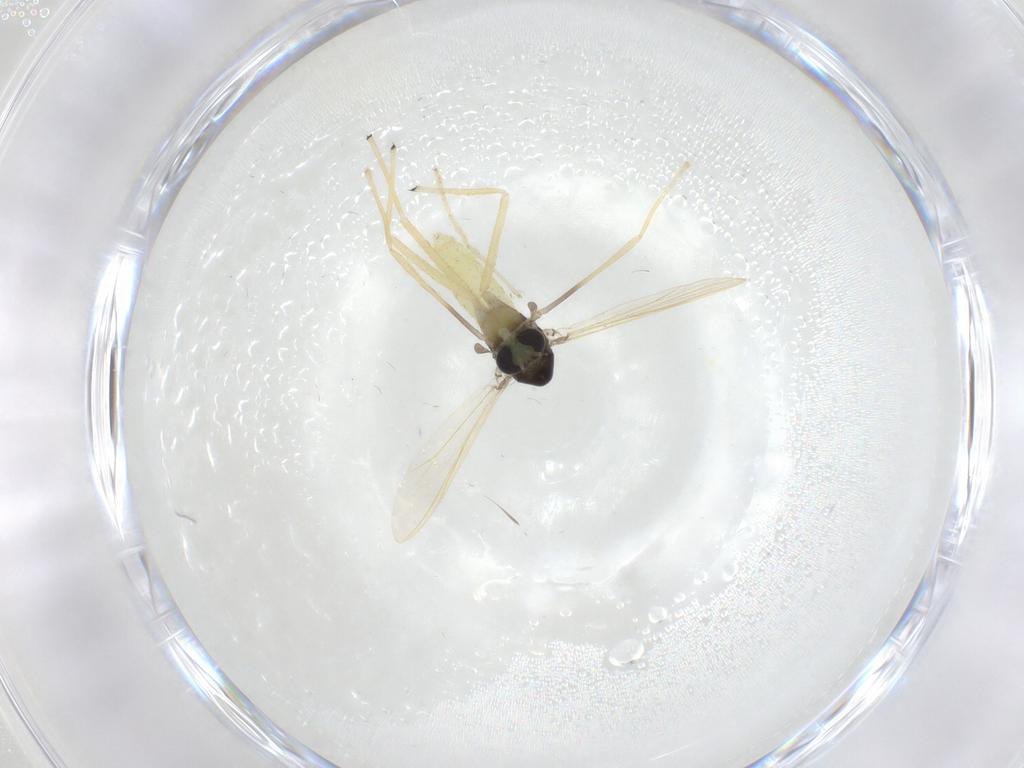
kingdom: Animalia
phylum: Arthropoda
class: Insecta
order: Diptera
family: Chironomidae
